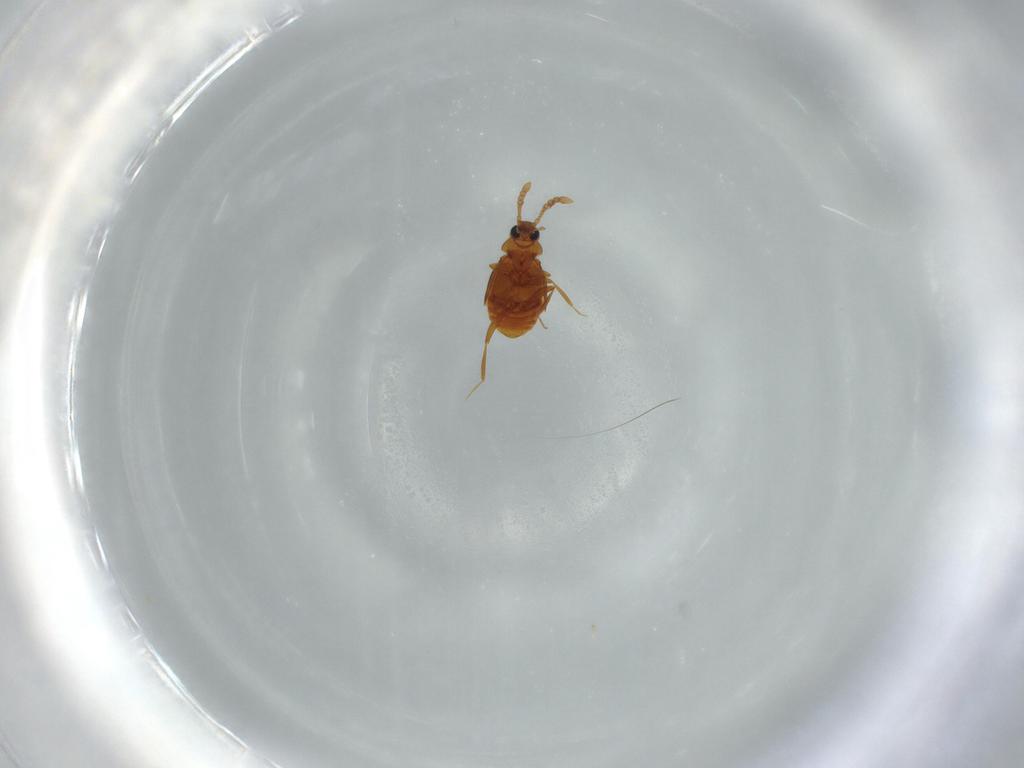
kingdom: Animalia
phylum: Arthropoda
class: Insecta
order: Coleoptera
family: Staphylinidae
